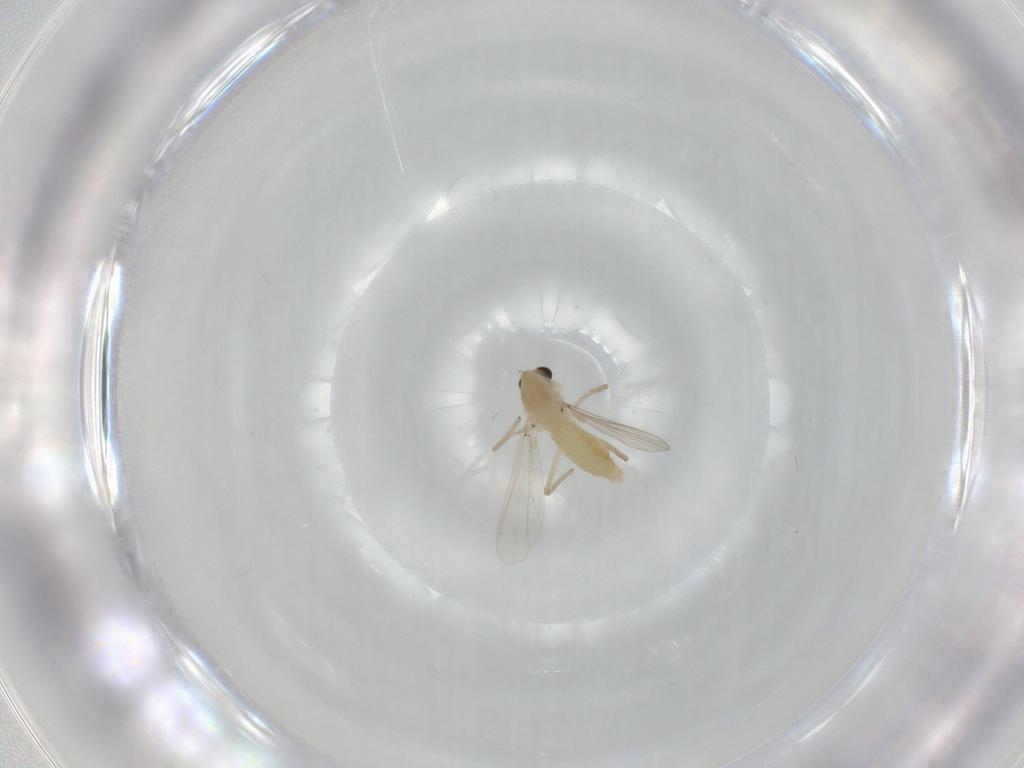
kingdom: Animalia
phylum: Arthropoda
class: Insecta
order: Diptera
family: Chironomidae
